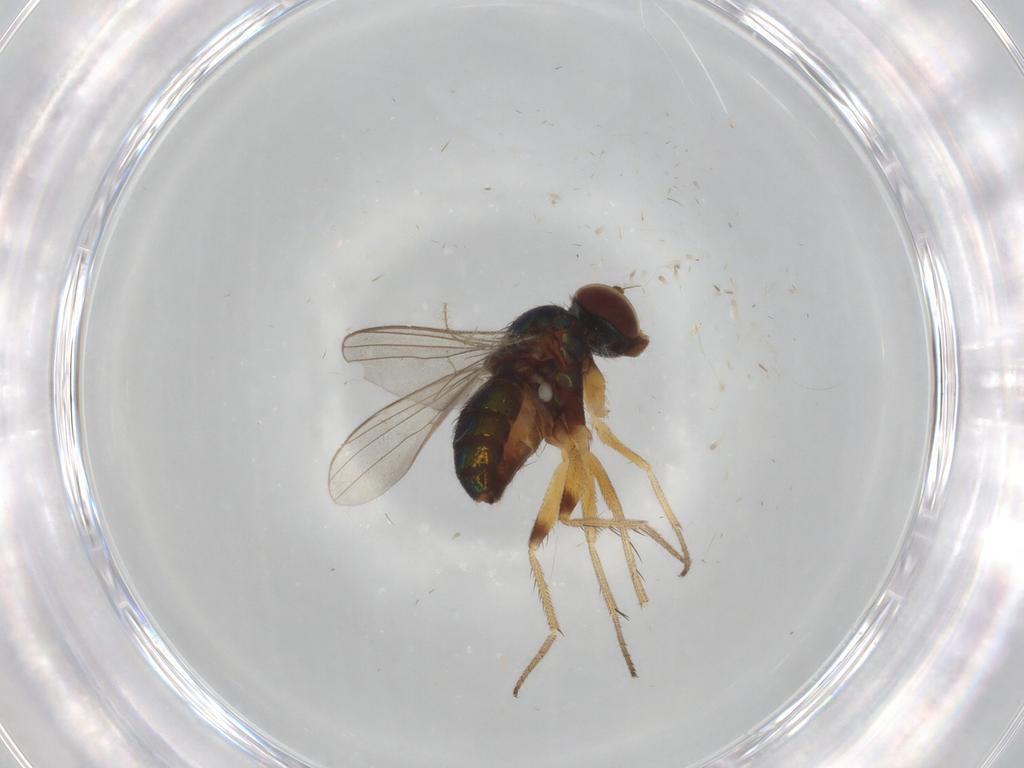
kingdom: Animalia
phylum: Arthropoda
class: Insecta
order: Diptera
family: Dolichopodidae
